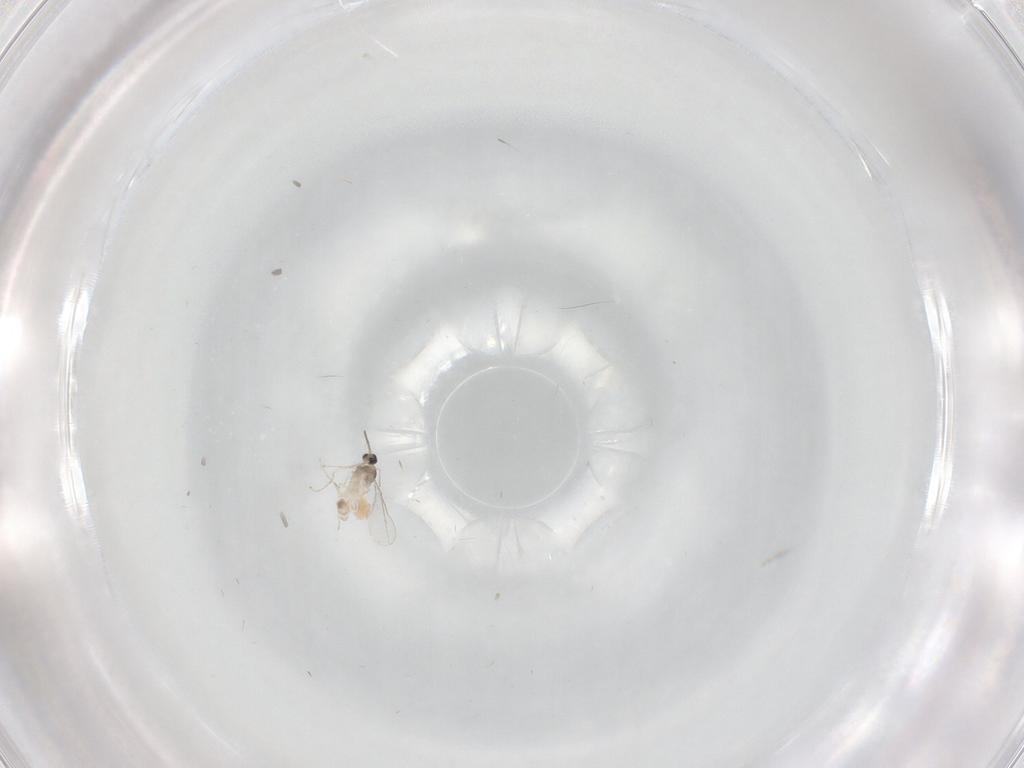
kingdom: Animalia
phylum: Arthropoda
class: Insecta
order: Diptera
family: Cecidomyiidae
